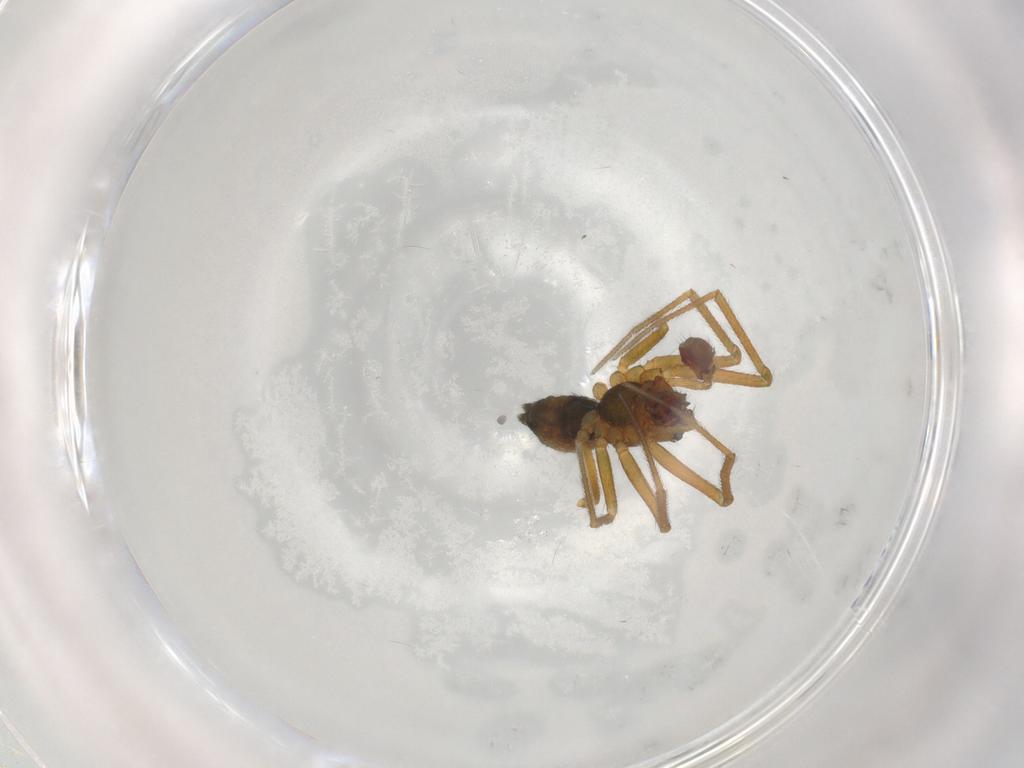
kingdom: Animalia
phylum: Arthropoda
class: Arachnida
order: Araneae
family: Linyphiidae
